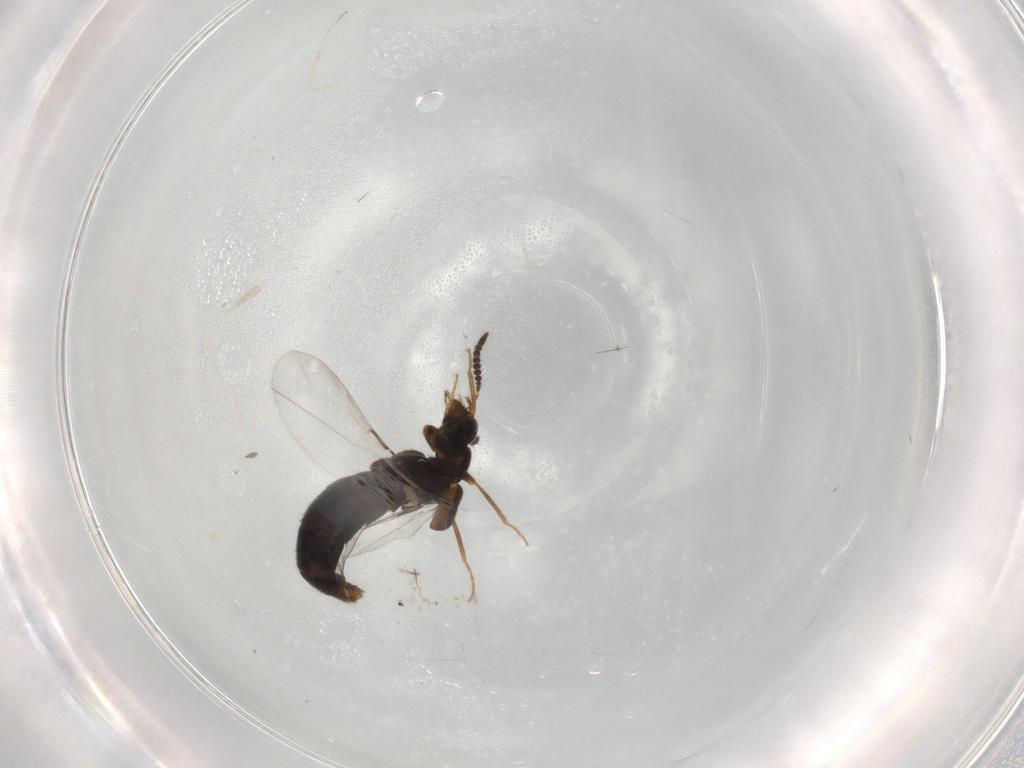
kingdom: Animalia
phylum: Arthropoda
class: Insecta
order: Coleoptera
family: Staphylinidae
